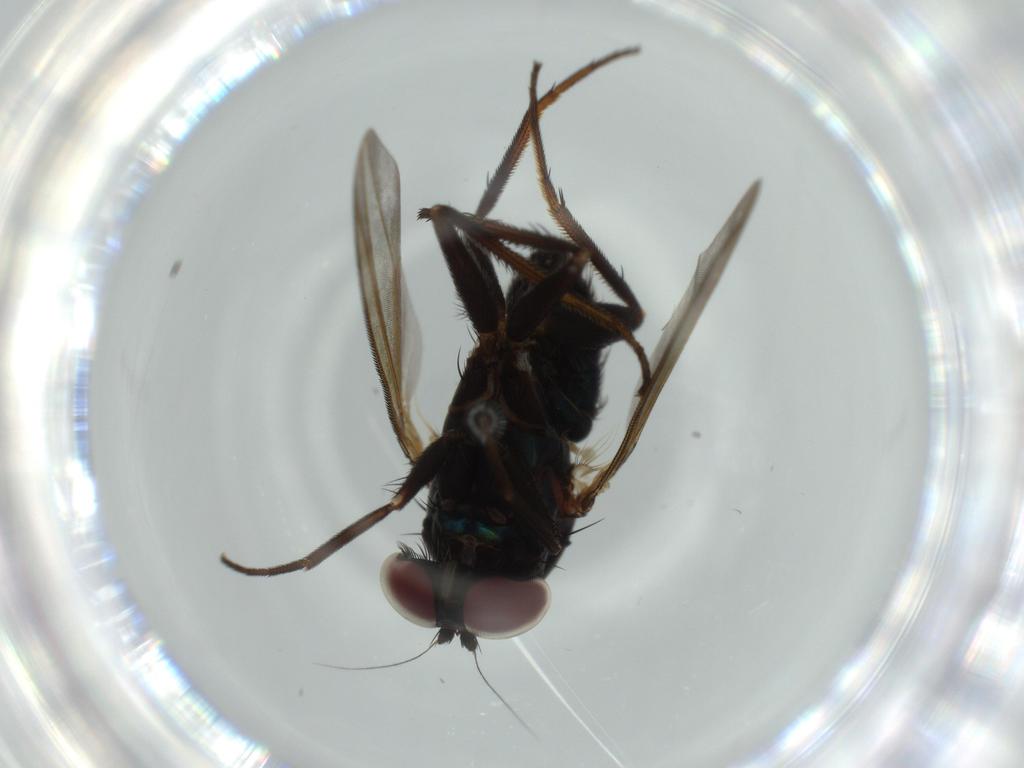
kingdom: Animalia
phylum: Arthropoda
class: Insecta
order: Diptera
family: Dolichopodidae
